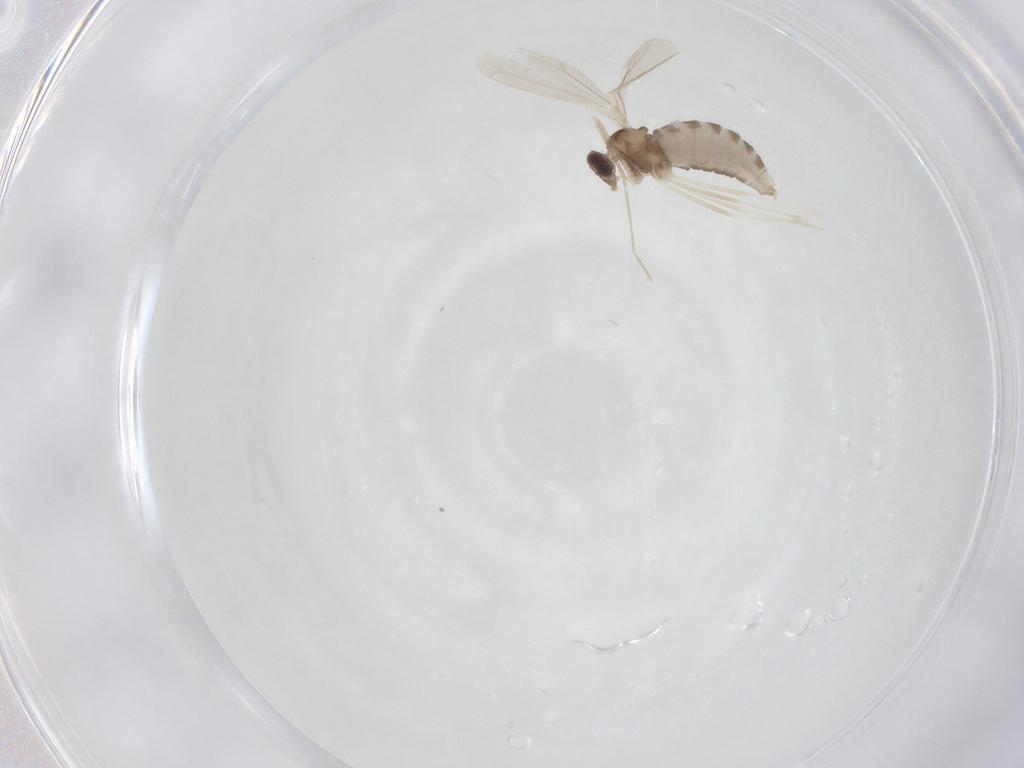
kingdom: Animalia
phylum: Arthropoda
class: Insecta
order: Diptera
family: Cecidomyiidae
